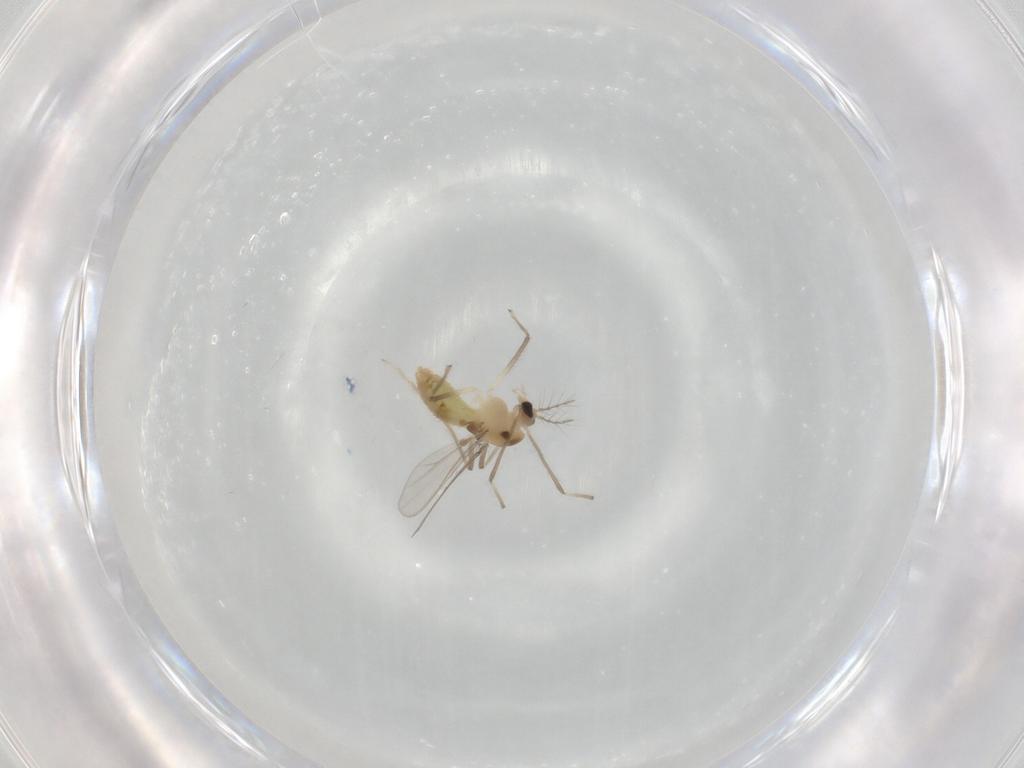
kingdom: Animalia
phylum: Arthropoda
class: Insecta
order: Diptera
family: Chironomidae
